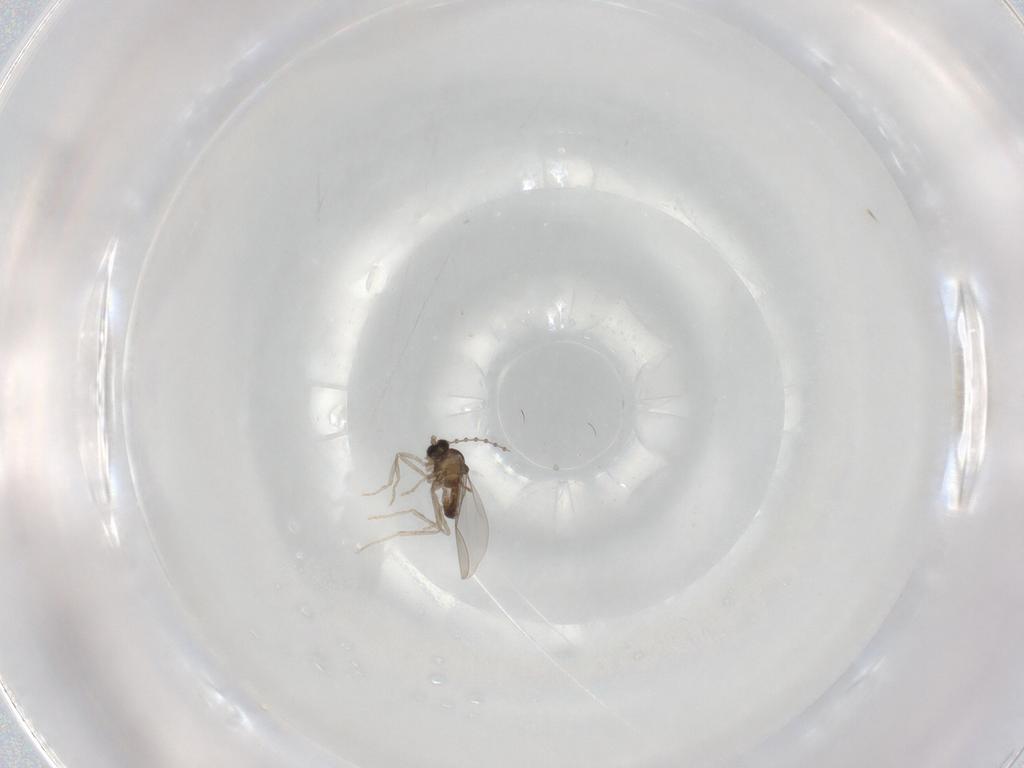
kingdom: Animalia
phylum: Arthropoda
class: Insecta
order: Diptera
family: Cecidomyiidae
